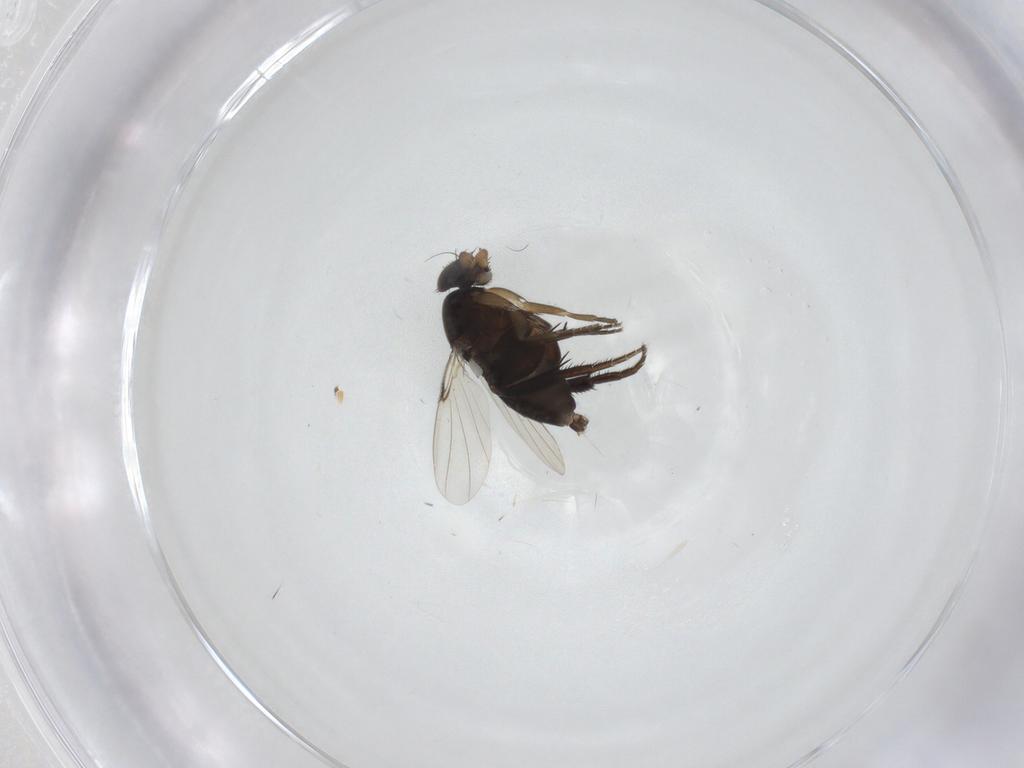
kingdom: Animalia
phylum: Arthropoda
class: Insecta
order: Diptera
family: Phoridae
